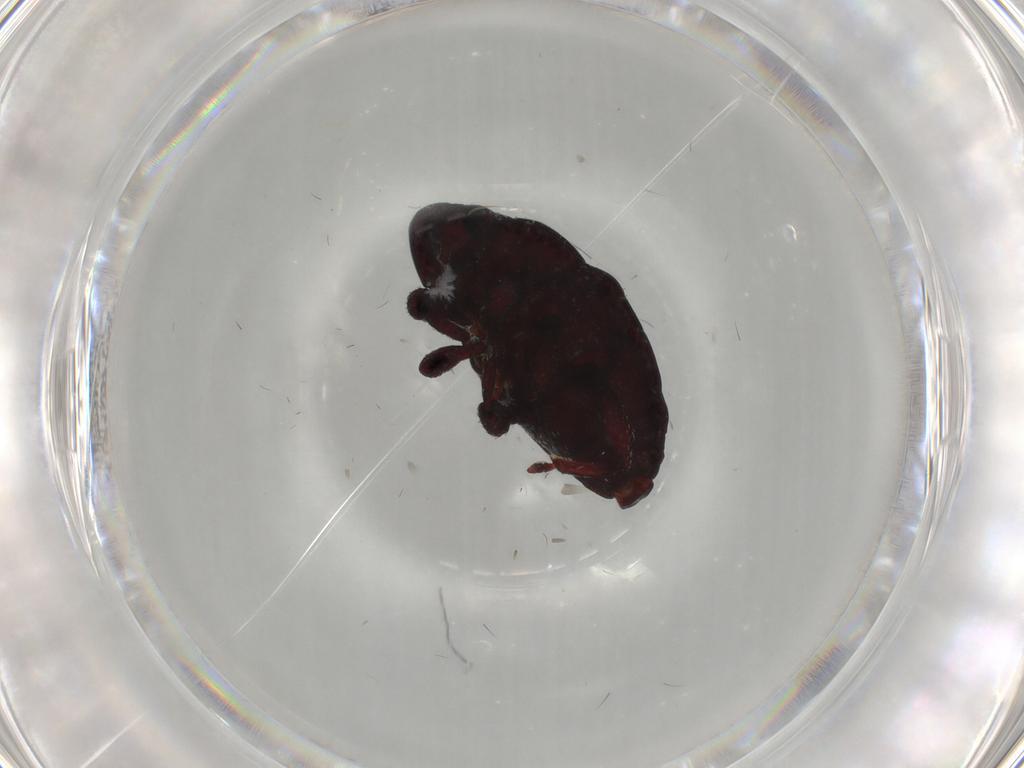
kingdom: Animalia
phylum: Arthropoda
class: Insecta
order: Coleoptera
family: Curculionidae
